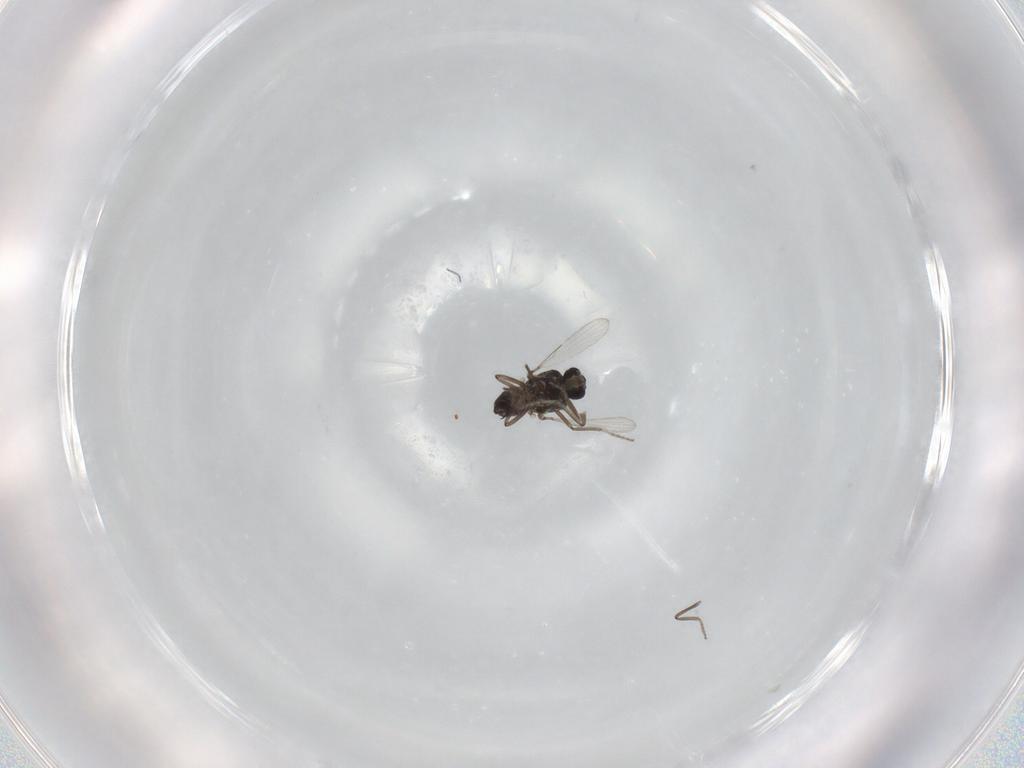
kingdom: Animalia
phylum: Arthropoda
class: Insecta
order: Diptera
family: Ceratopogonidae
